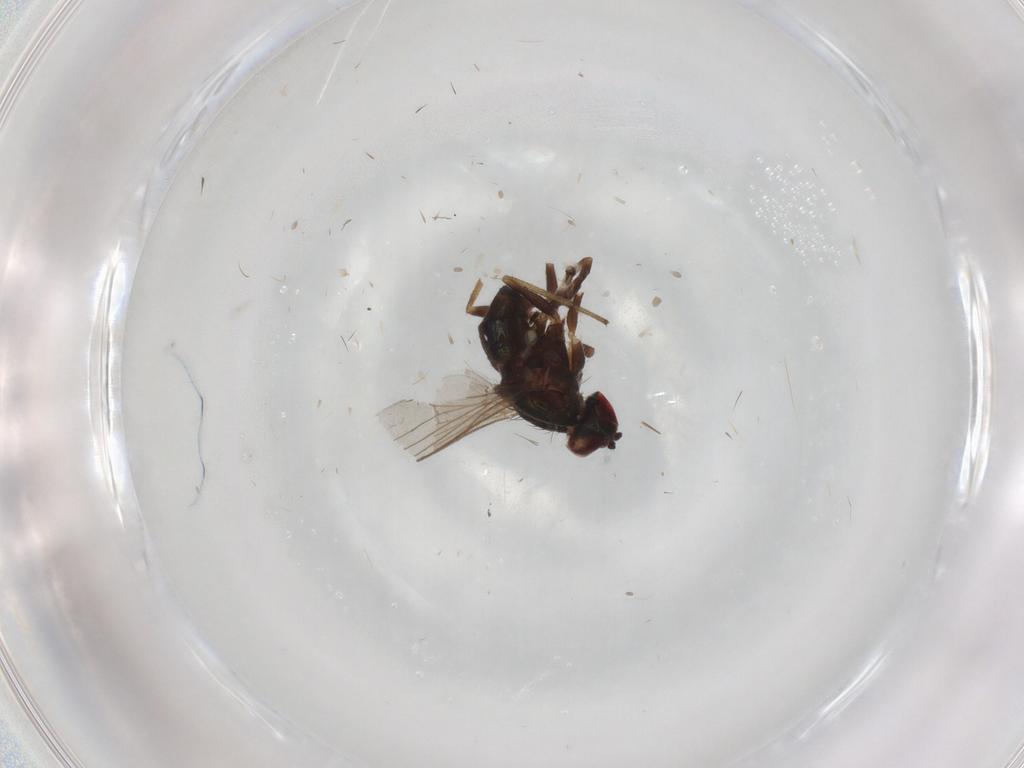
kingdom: Animalia
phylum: Arthropoda
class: Insecta
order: Diptera
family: Dolichopodidae
